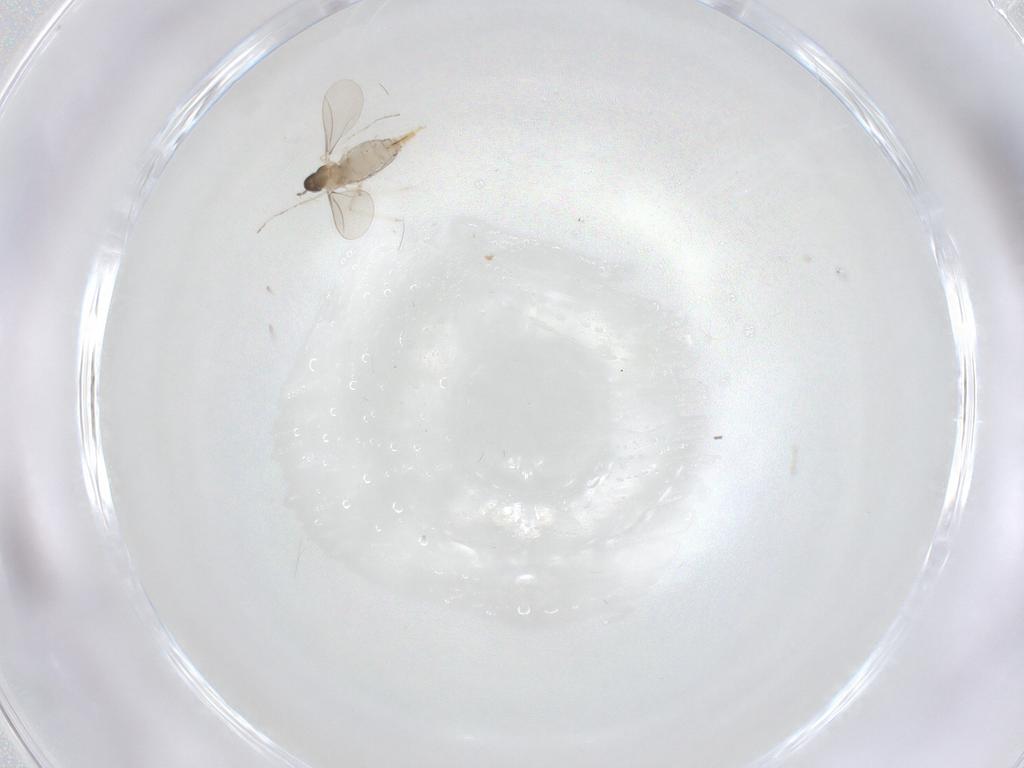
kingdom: Animalia
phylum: Arthropoda
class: Insecta
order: Diptera
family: Cecidomyiidae
